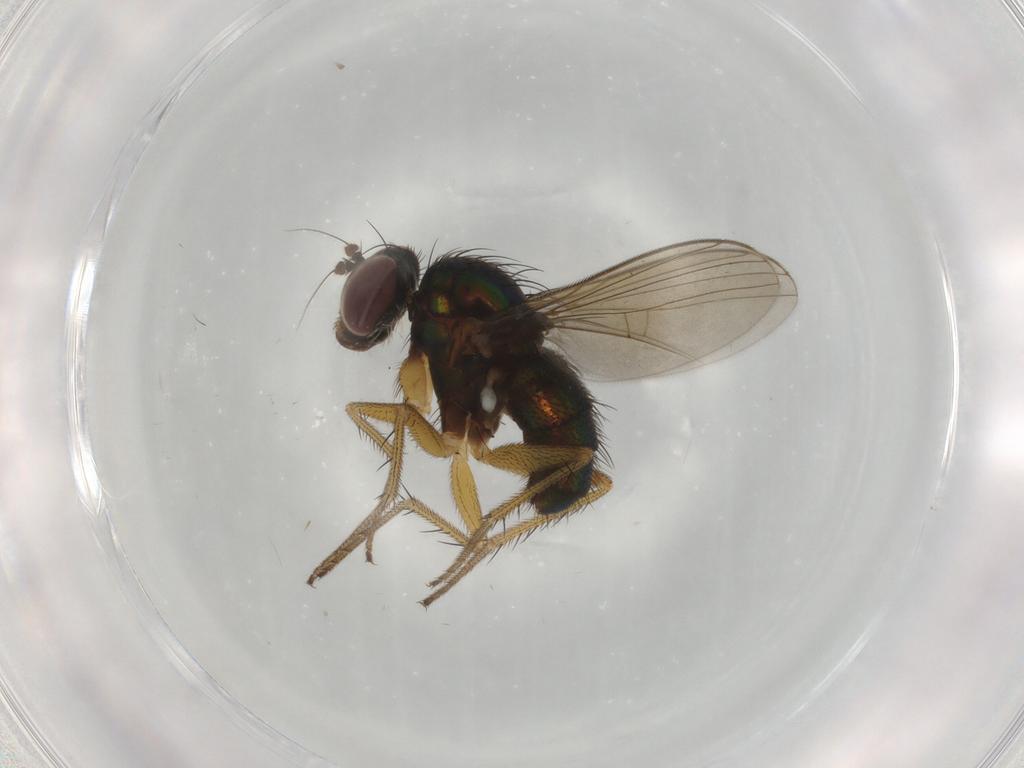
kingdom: Animalia
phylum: Arthropoda
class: Insecta
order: Diptera
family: Dolichopodidae
